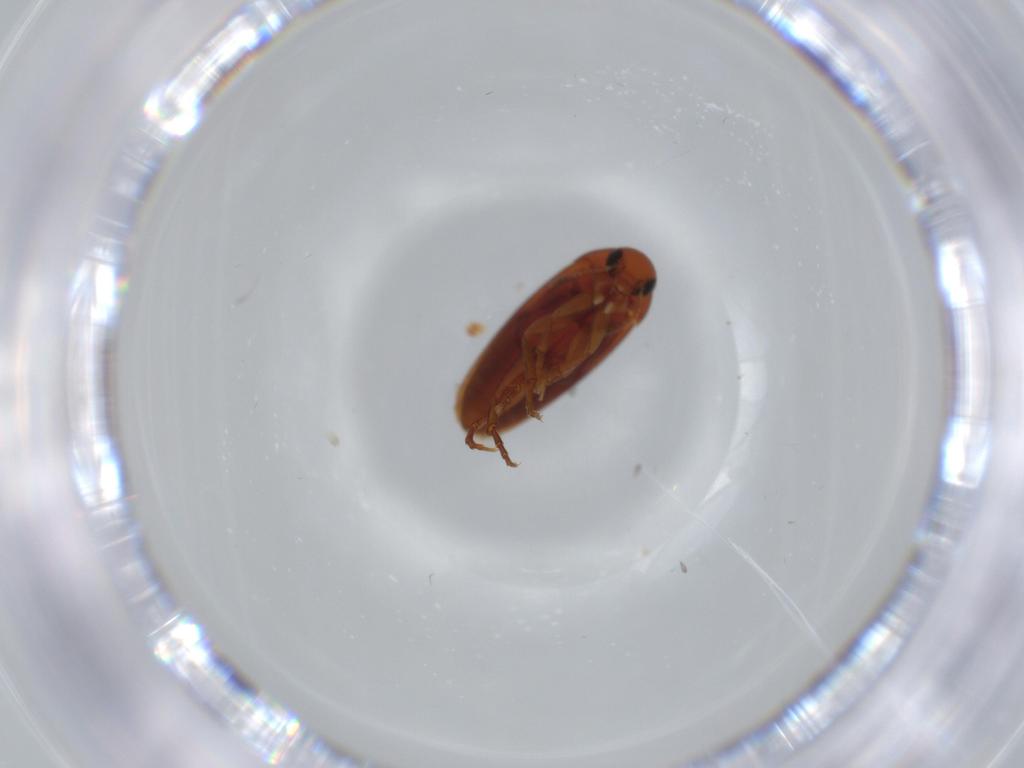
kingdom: Animalia
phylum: Arthropoda
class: Insecta
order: Coleoptera
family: Scraptiidae
